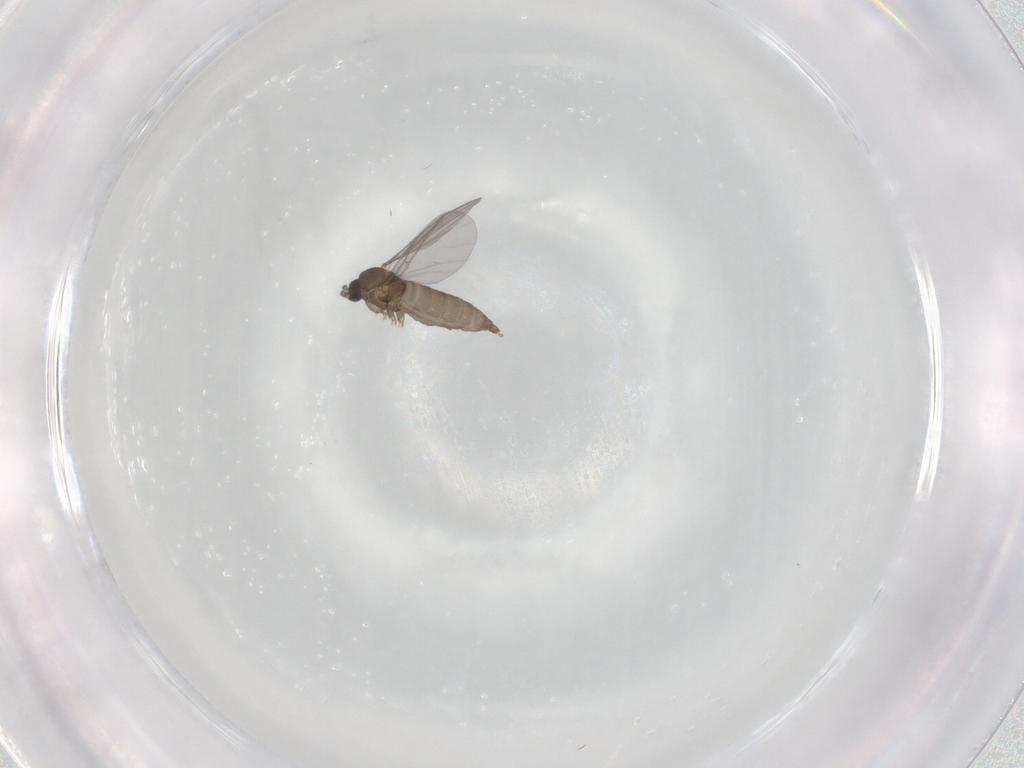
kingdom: Animalia
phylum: Arthropoda
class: Insecta
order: Diptera
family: Sciaridae
